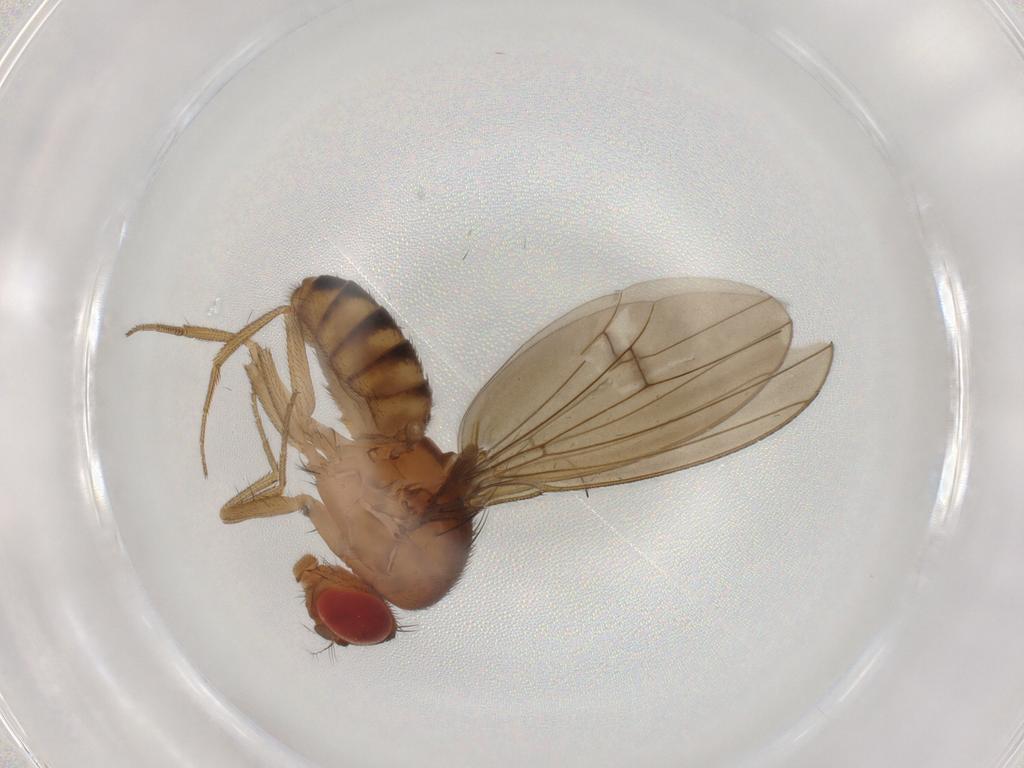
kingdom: Animalia
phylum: Arthropoda
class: Insecta
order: Diptera
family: Drosophilidae
